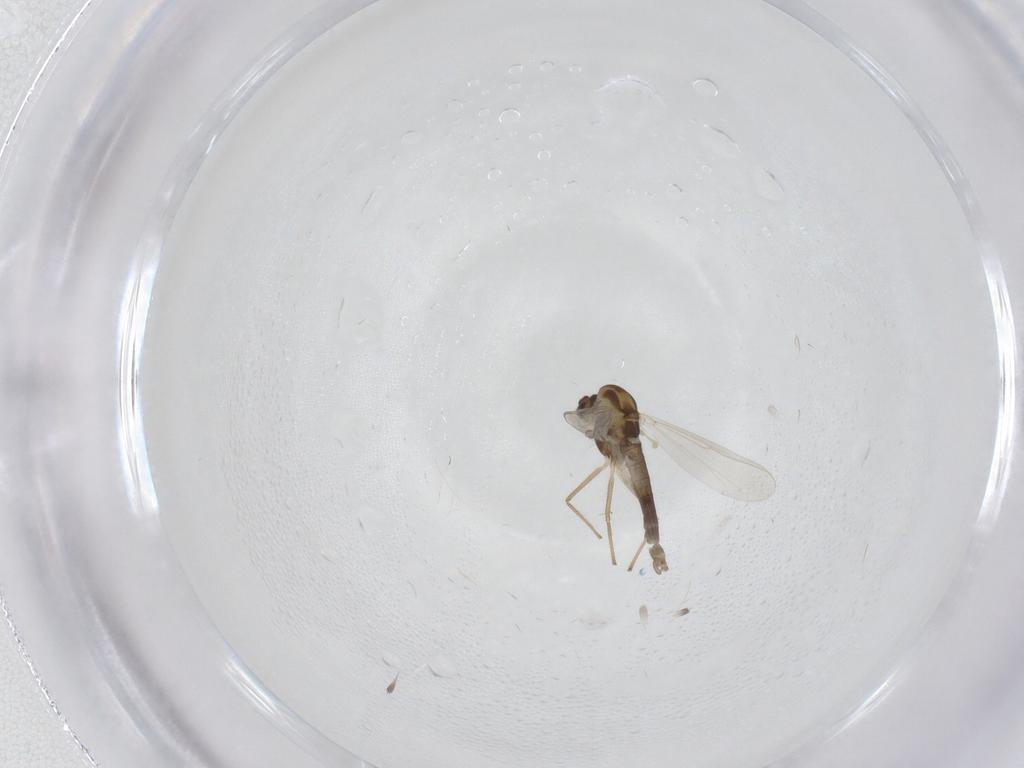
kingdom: Animalia
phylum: Arthropoda
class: Insecta
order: Diptera
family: Chironomidae
